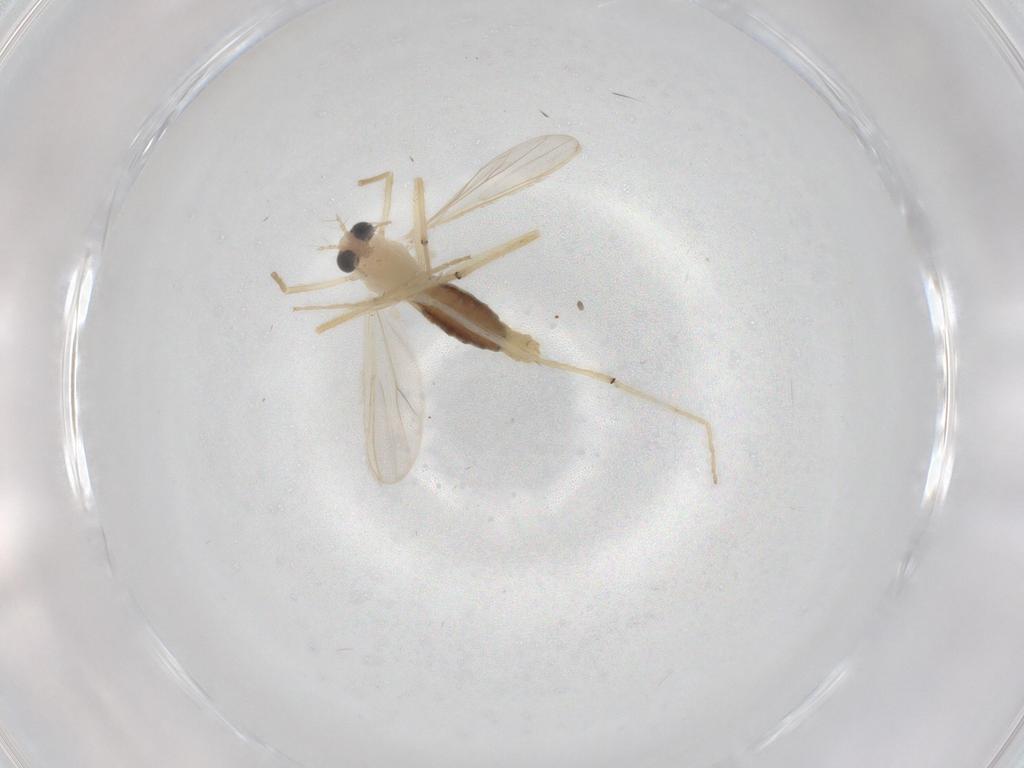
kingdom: Animalia
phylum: Arthropoda
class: Insecta
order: Diptera
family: Chironomidae
